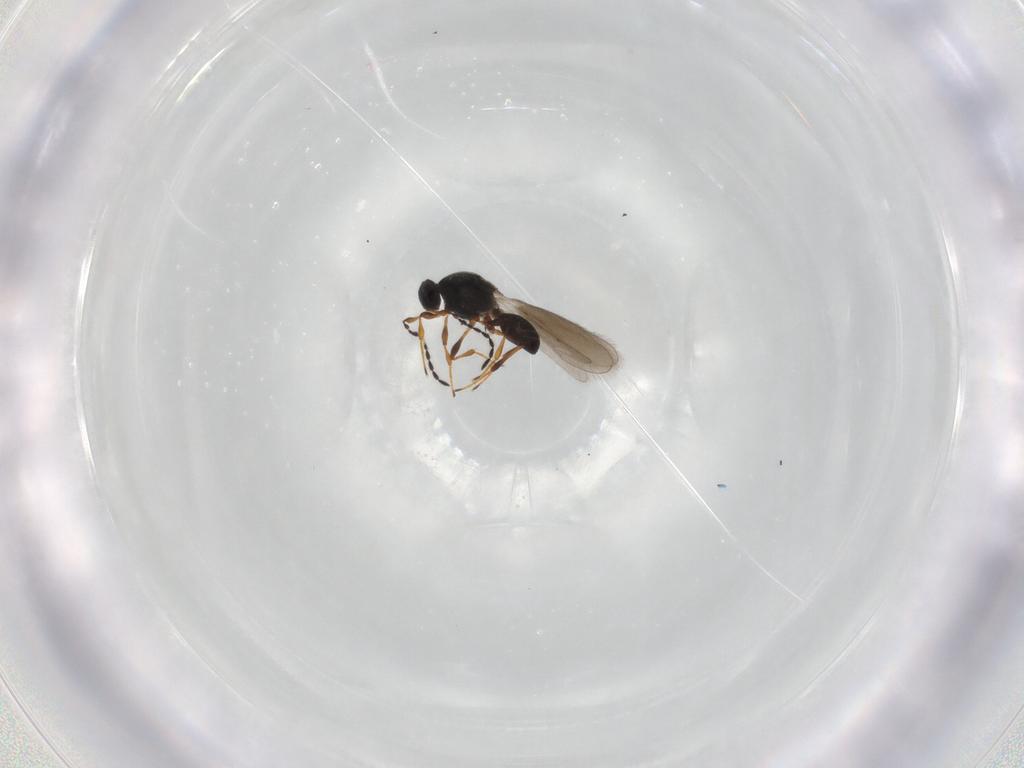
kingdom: Animalia
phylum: Arthropoda
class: Insecta
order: Hymenoptera
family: Platygastridae
